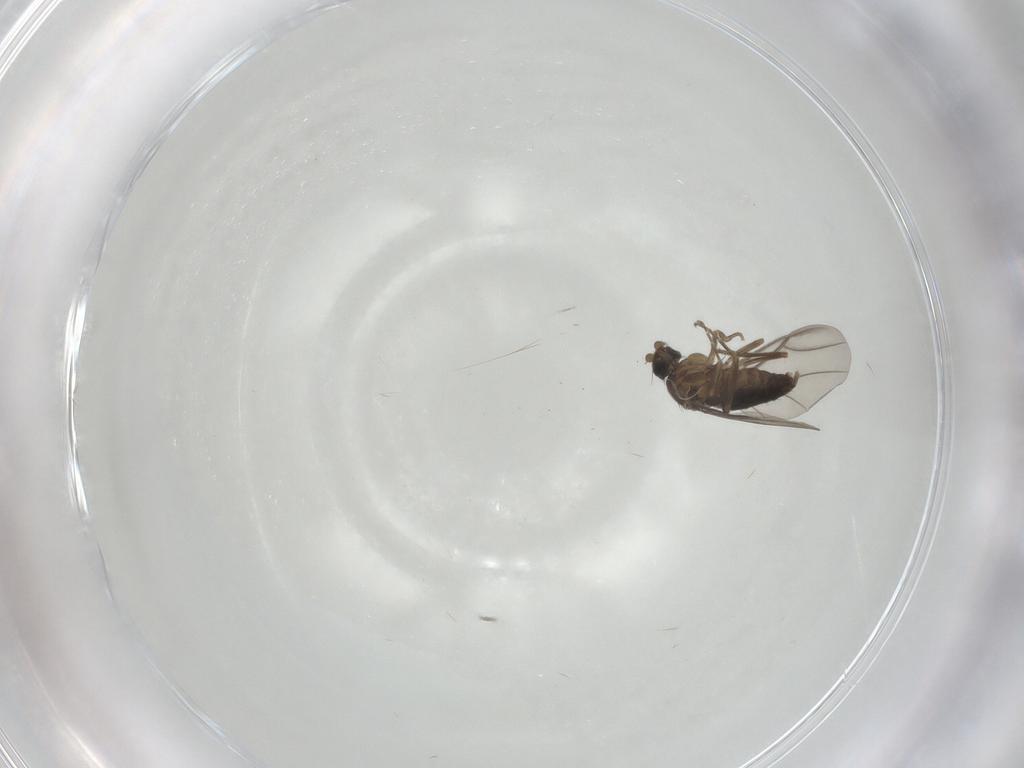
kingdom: Animalia
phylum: Arthropoda
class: Insecta
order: Diptera
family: Phoridae
